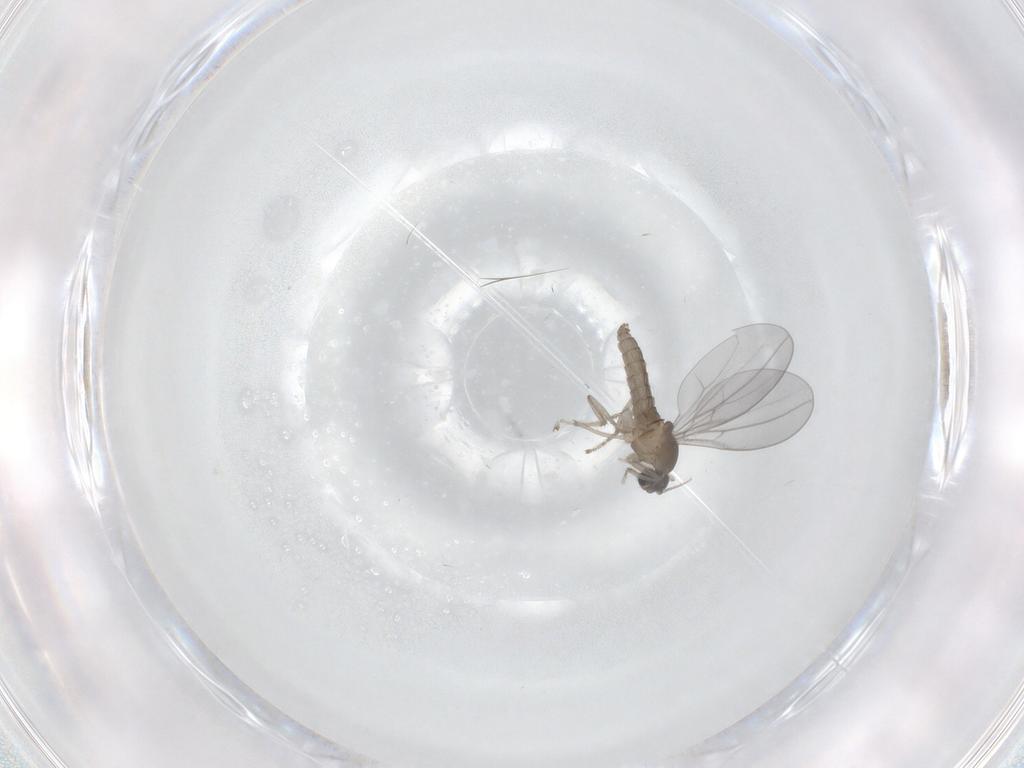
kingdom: Animalia
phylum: Arthropoda
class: Insecta
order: Diptera
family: Cecidomyiidae
